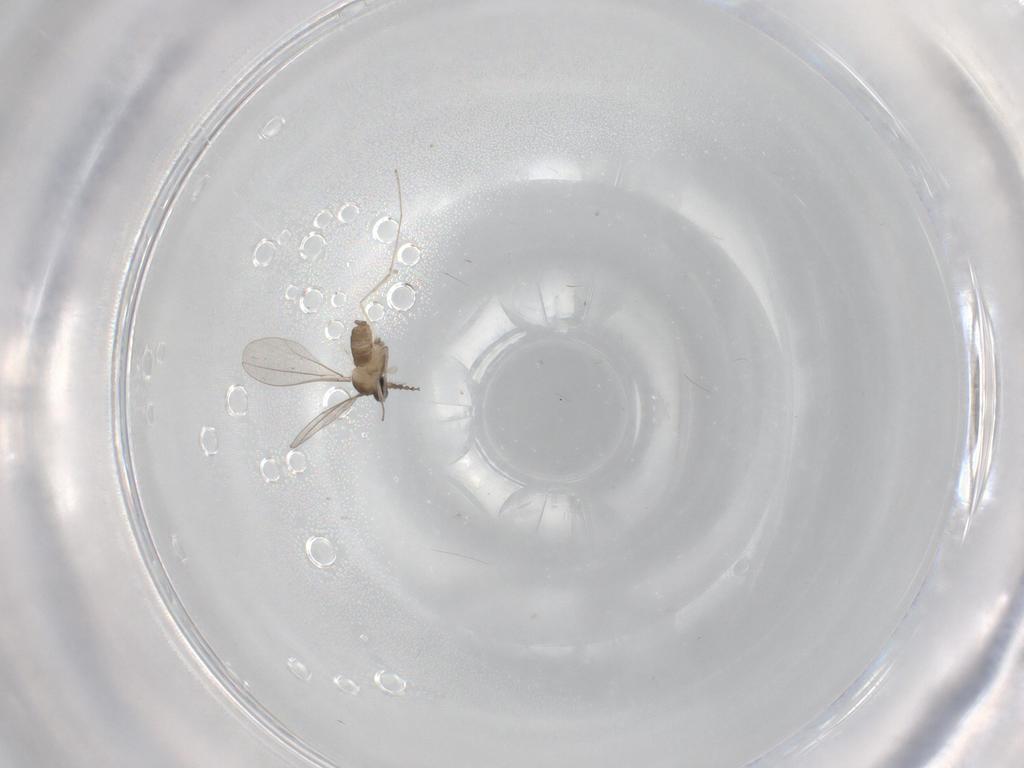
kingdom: Animalia
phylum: Arthropoda
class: Insecta
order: Diptera
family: Cecidomyiidae
